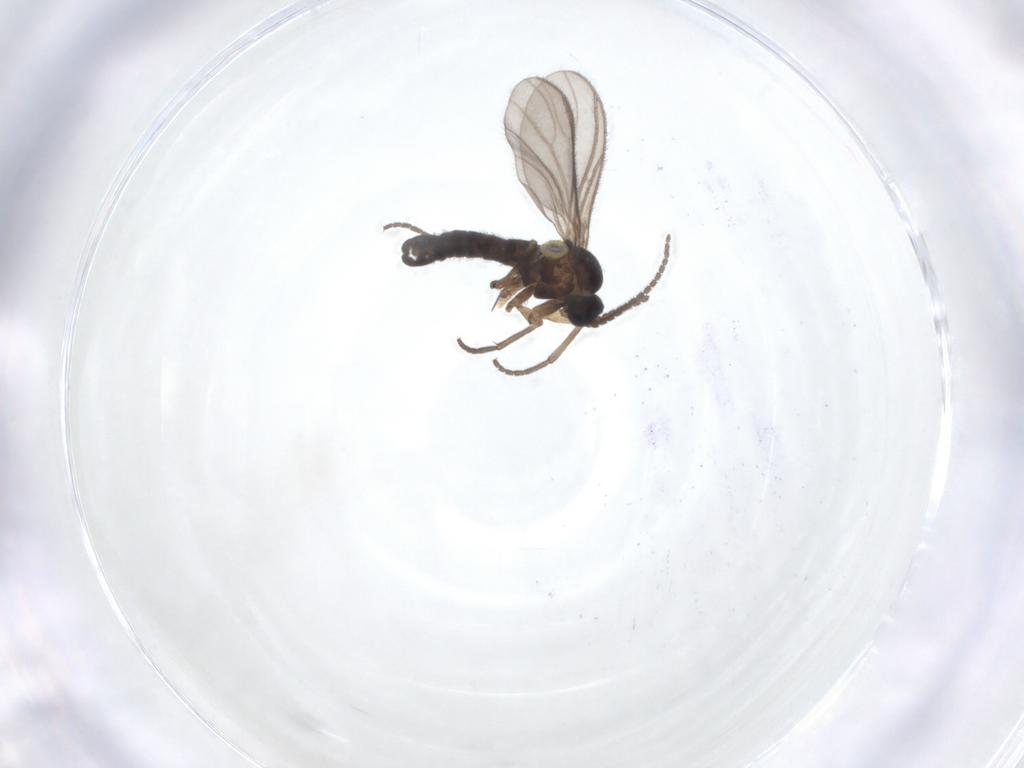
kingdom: Animalia
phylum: Arthropoda
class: Insecta
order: Diptera
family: Sciaridae
